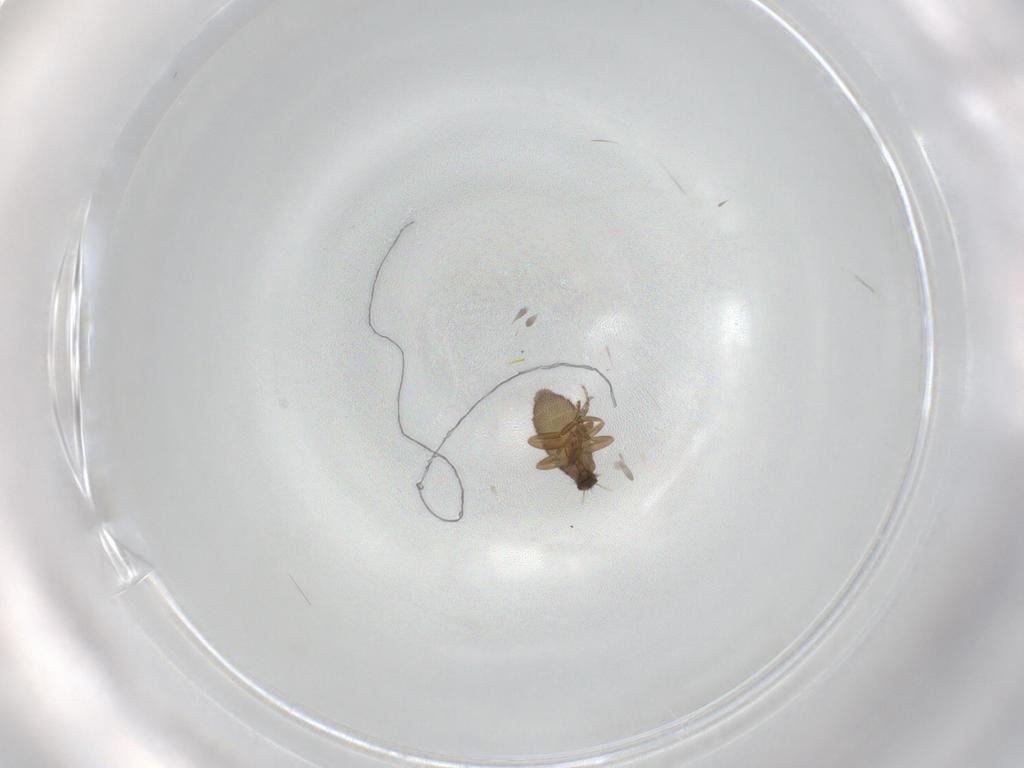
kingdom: Animalia
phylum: Arthropoda
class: Insecta
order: Diptera
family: Phoridae
